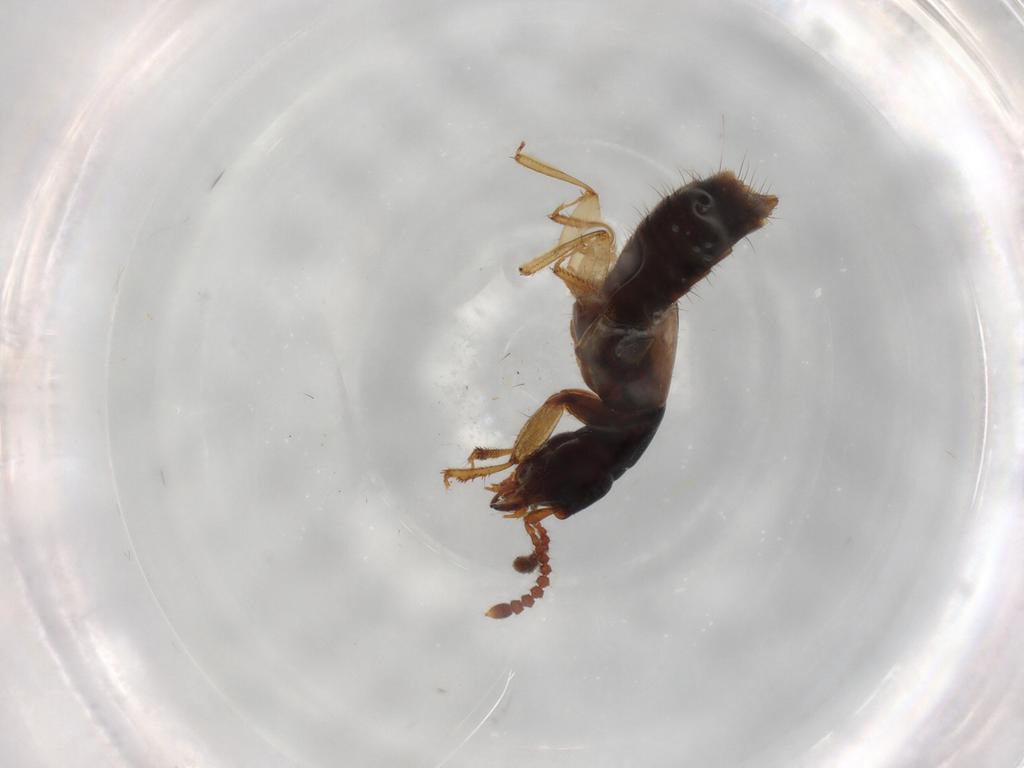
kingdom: Animalia
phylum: Arthropoda
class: Insecta
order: Coleoptera
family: Staphylinidae
